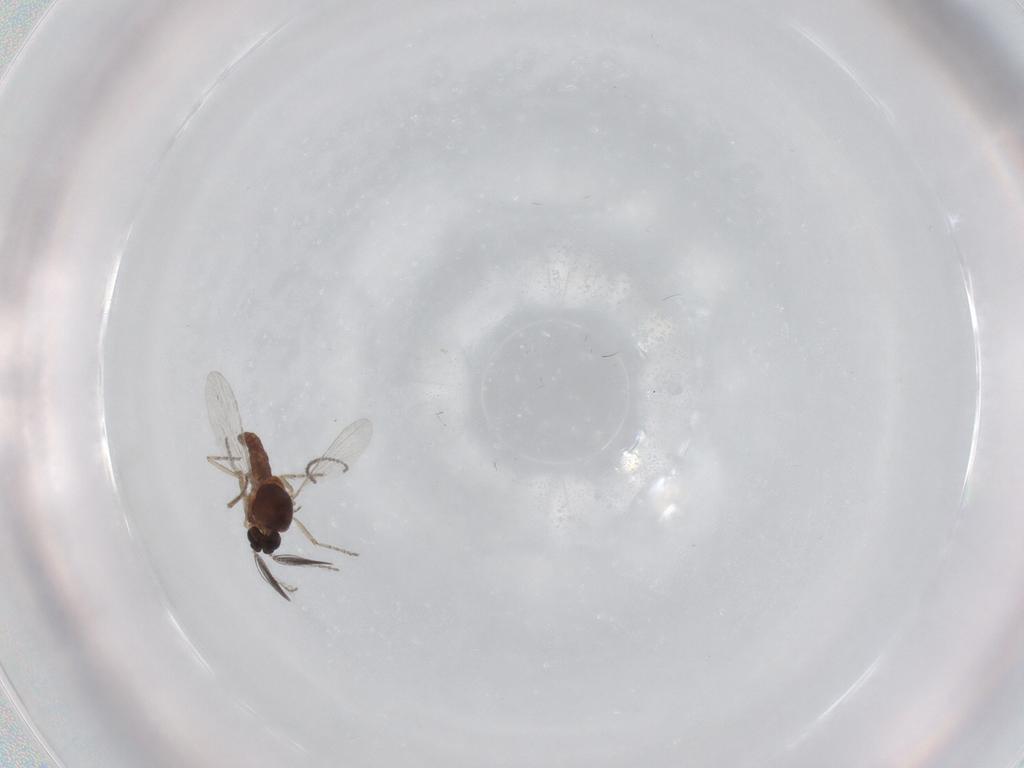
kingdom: Animalia
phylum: Arthropoda
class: Insecta
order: Diptera
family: Ceratopogonidae
